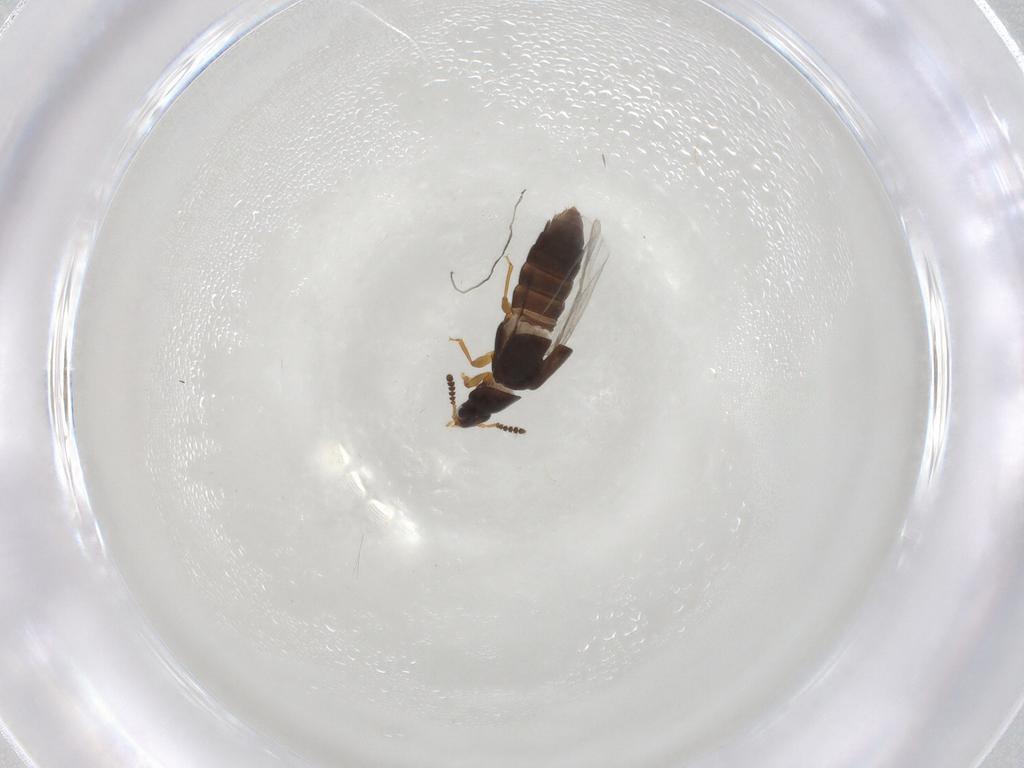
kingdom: Animalia
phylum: Arthropoda
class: Insecta
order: Coleoptera
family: Staphylinidae
